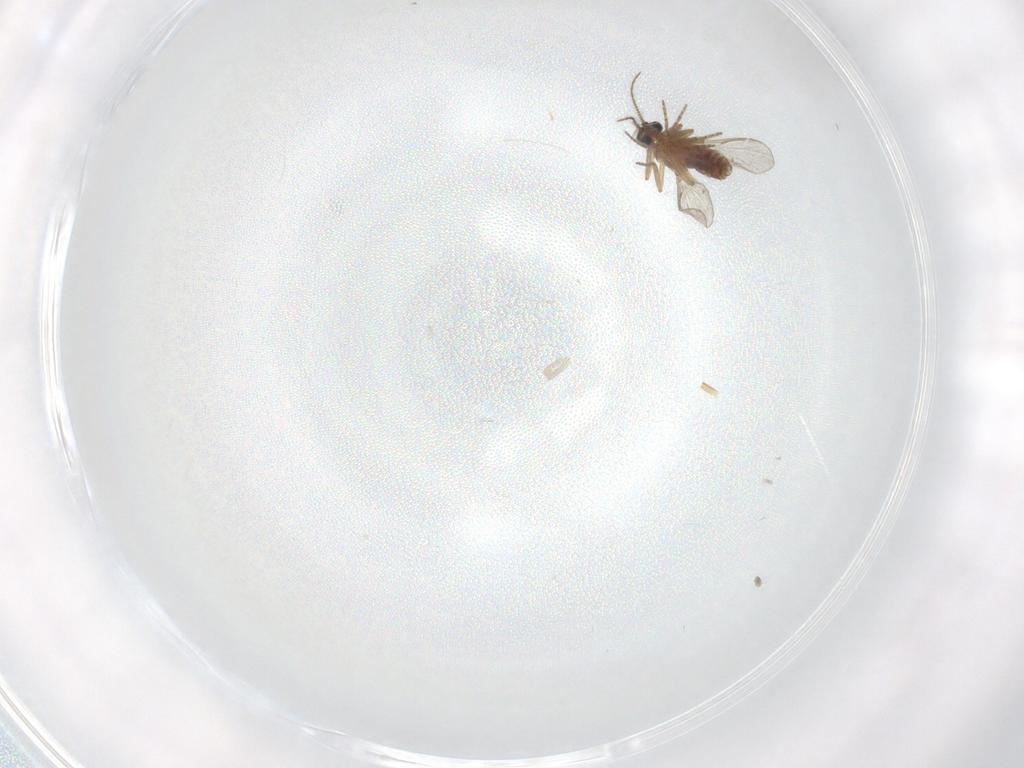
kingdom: Animalia
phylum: Arthropoda
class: Insecta
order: Diptera
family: Chironomidae
